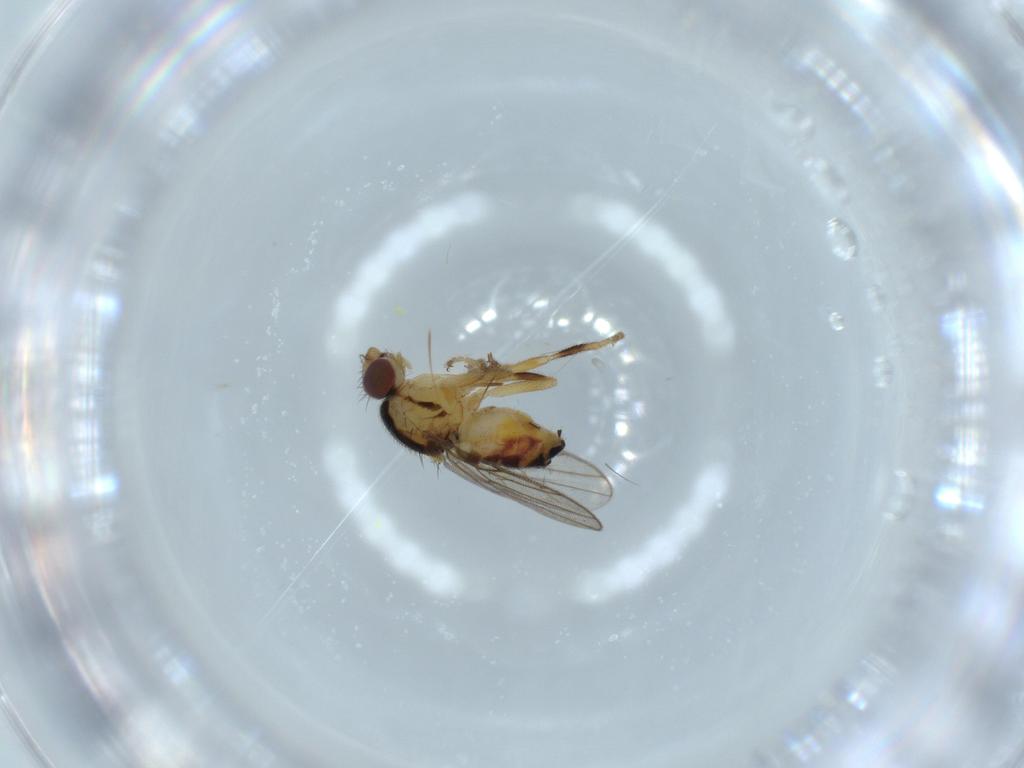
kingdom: Animalia
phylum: Arthropoda
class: Insecta
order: Diptera
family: Chloropidae
